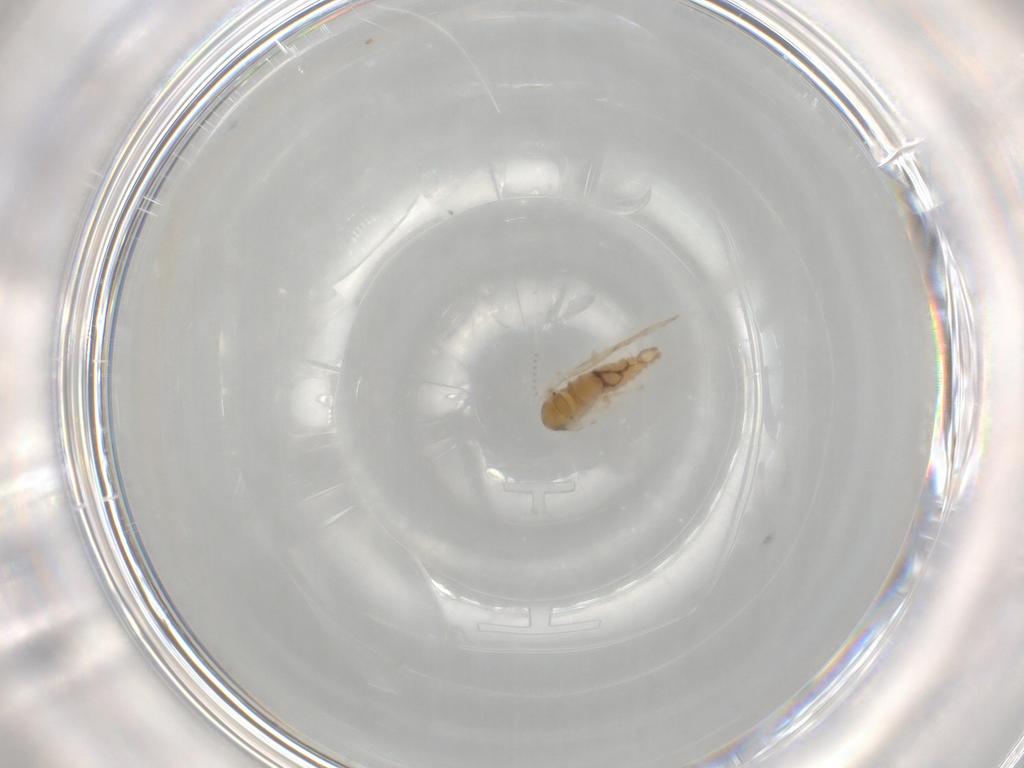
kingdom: Animalia
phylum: Arthropoda
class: Insecta
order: Diptera
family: Psychodidae
